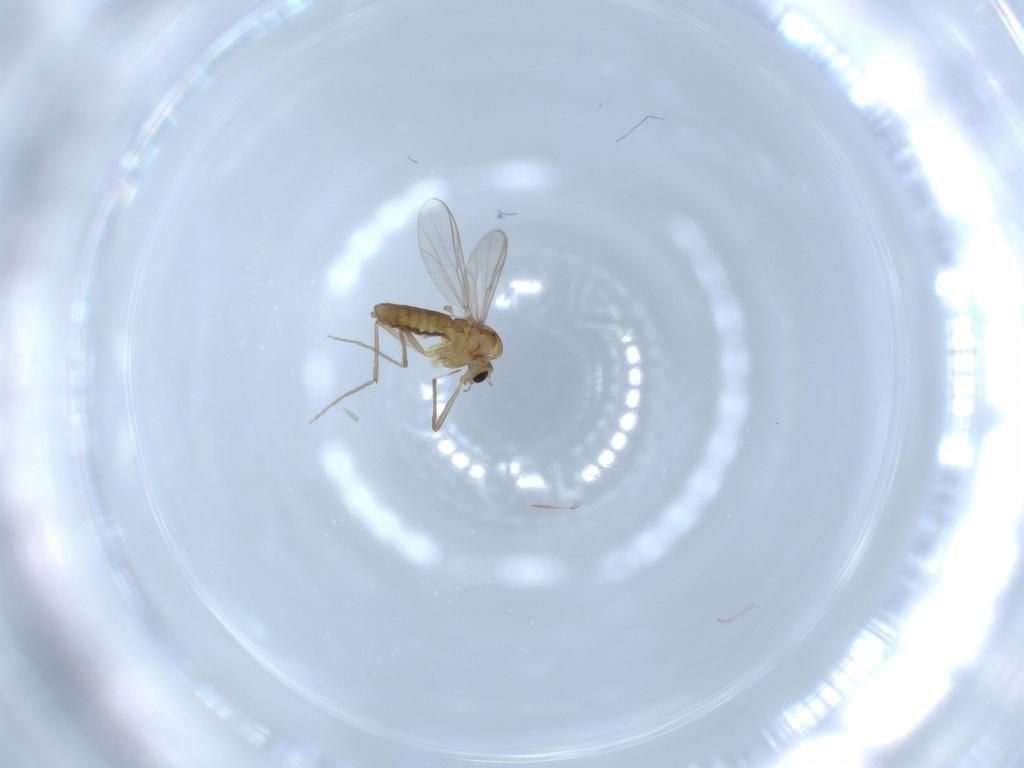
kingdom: Animalia
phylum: Arthropoda
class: Insecta
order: Diptera
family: Chironomidae
